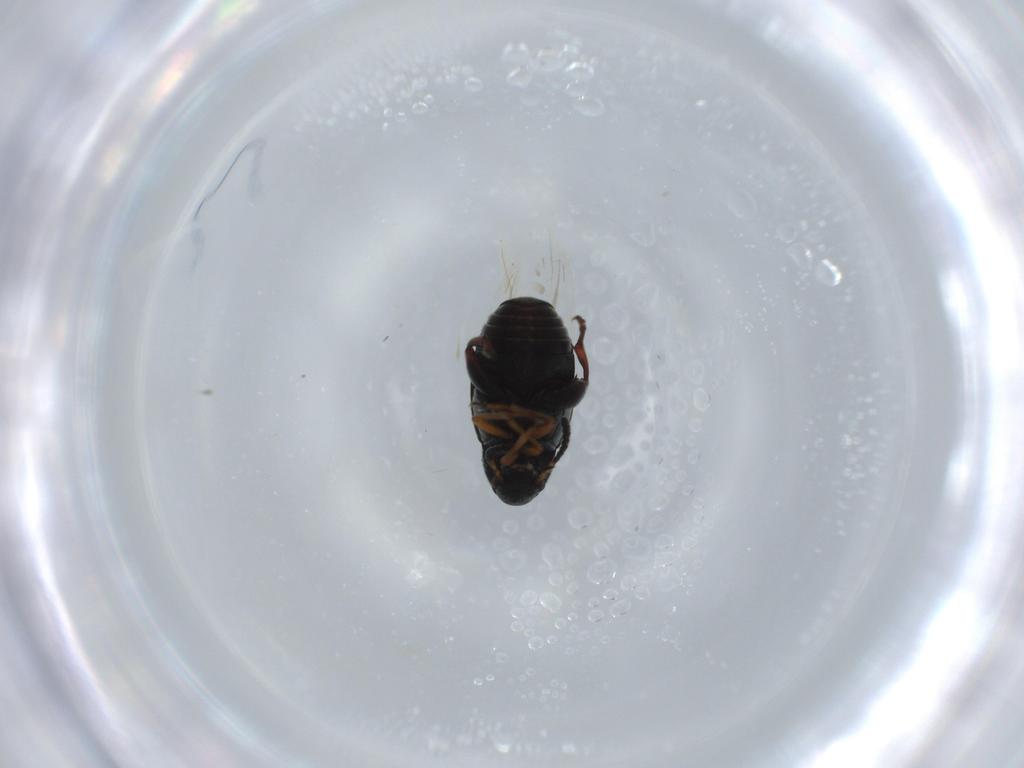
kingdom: Animalia
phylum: Arthropoda
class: Insecta
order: Coleoptera
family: Chrysomelidae
